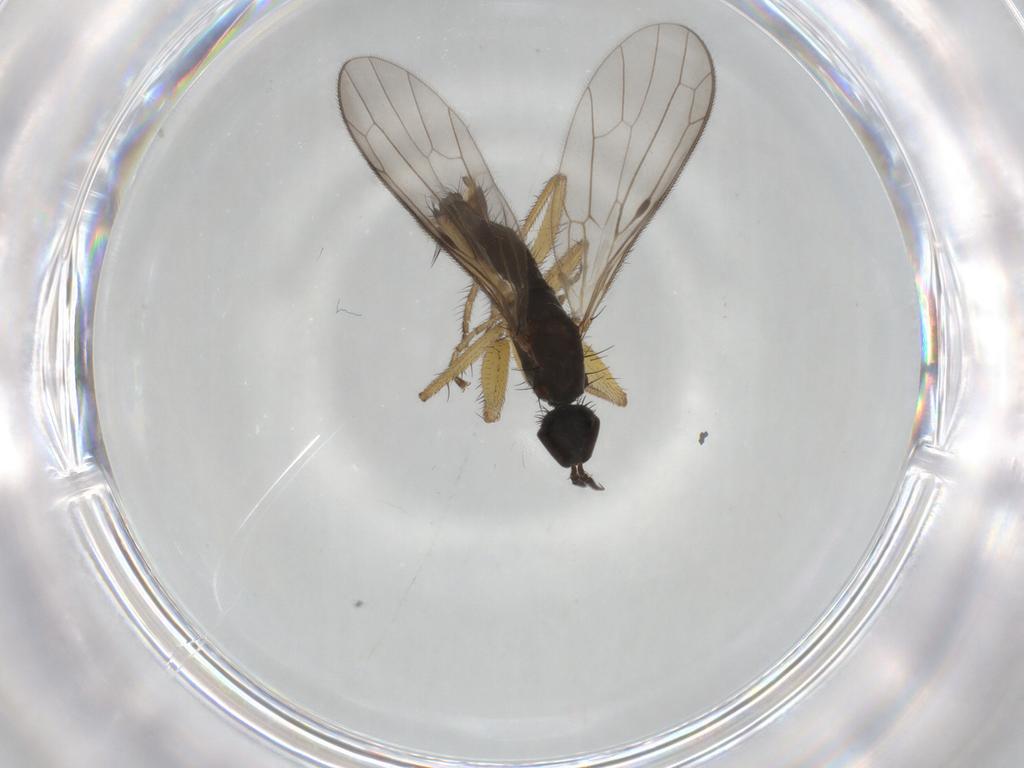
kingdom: Animalia
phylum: Arthropoda
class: Insecta
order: Diptera
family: Empididae
